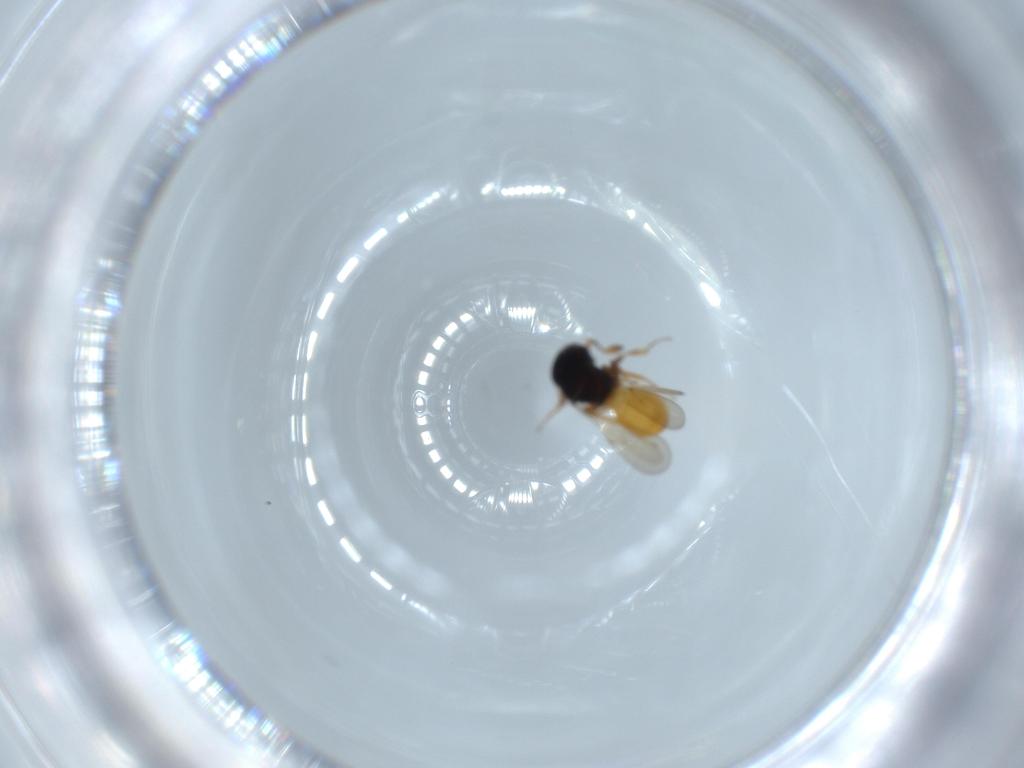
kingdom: Animalia
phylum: Arthropoda
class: Insecta
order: Hymenoptera
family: Scelionidae
